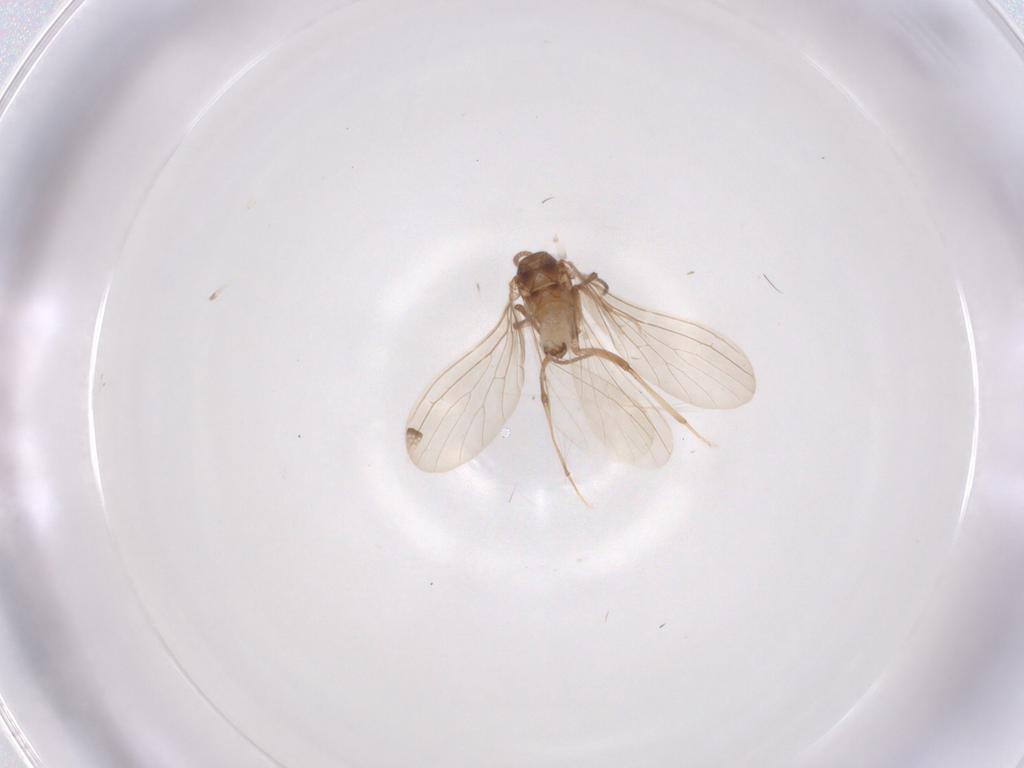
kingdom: Animalia
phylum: Arthropoda
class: Insecta
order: Neuroptera
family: Coniopterygidae
